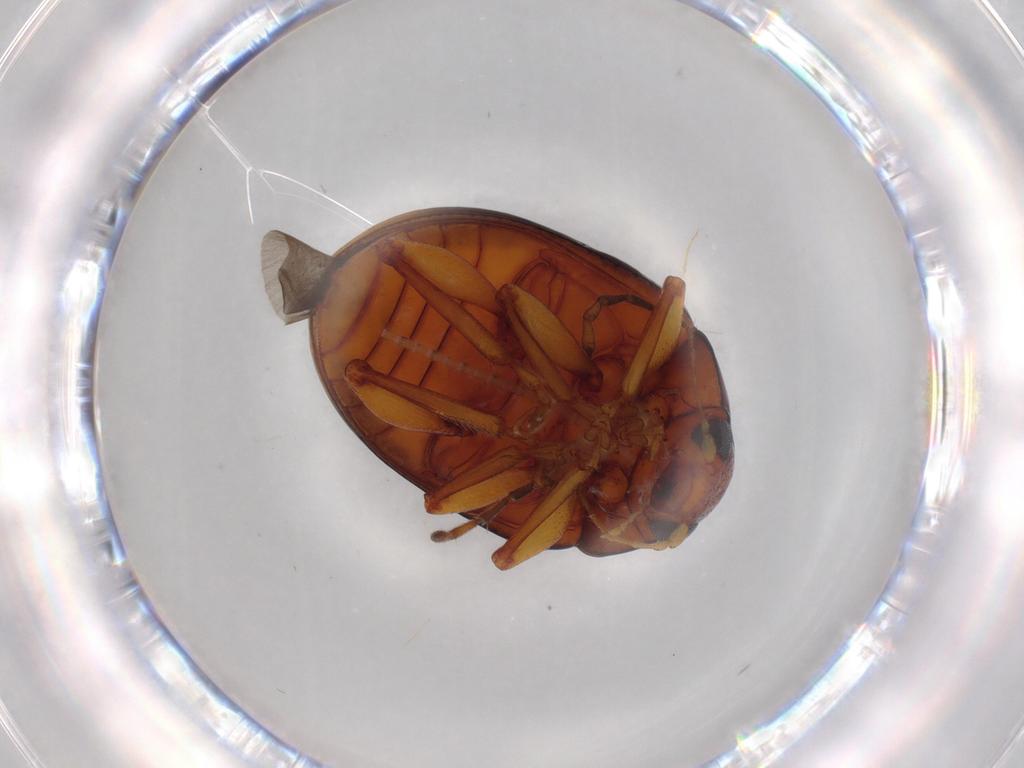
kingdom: Animalia
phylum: Arthropoda
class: Insecta
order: Coleoptera
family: Chrysomelidae
